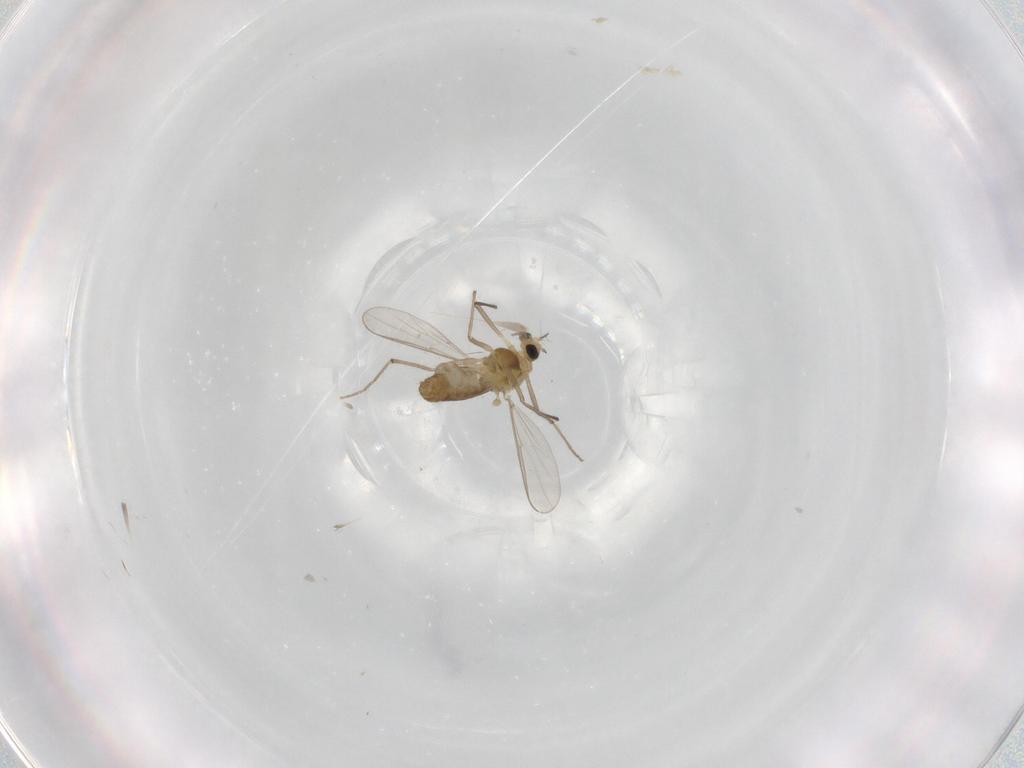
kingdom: Animalia
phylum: Arthropoda
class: Insecta
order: Diptera
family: Chironomidae
